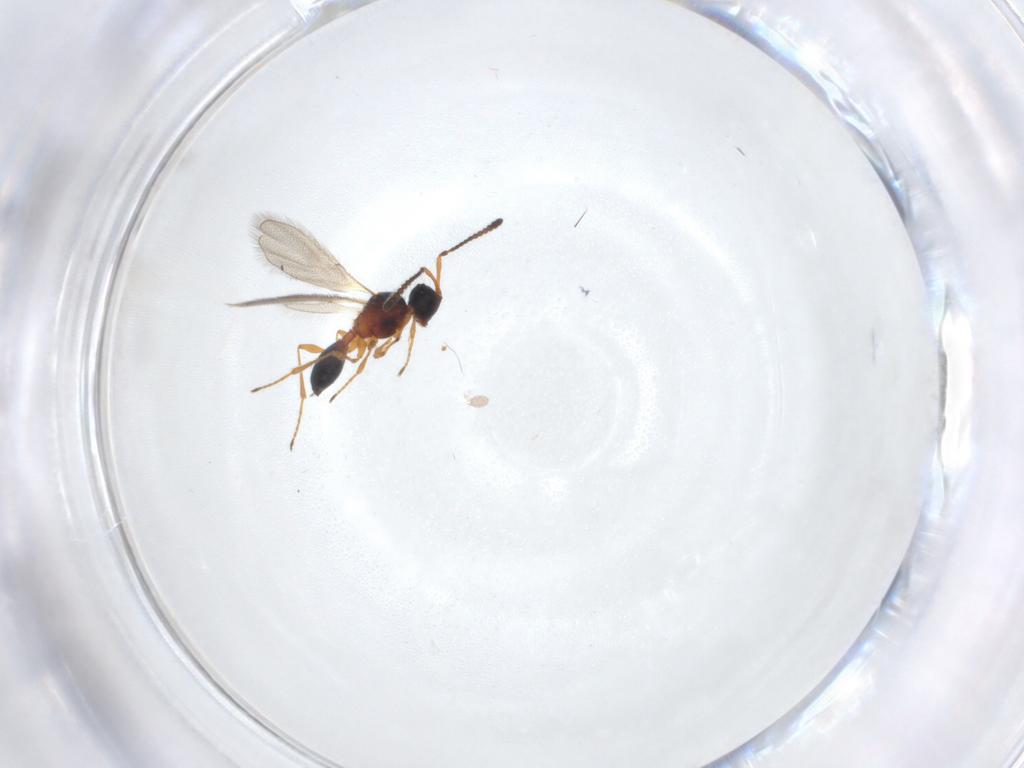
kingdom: Animalia
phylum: Arthropoda
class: Insecta
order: Hymenoptera
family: Diapriidae
